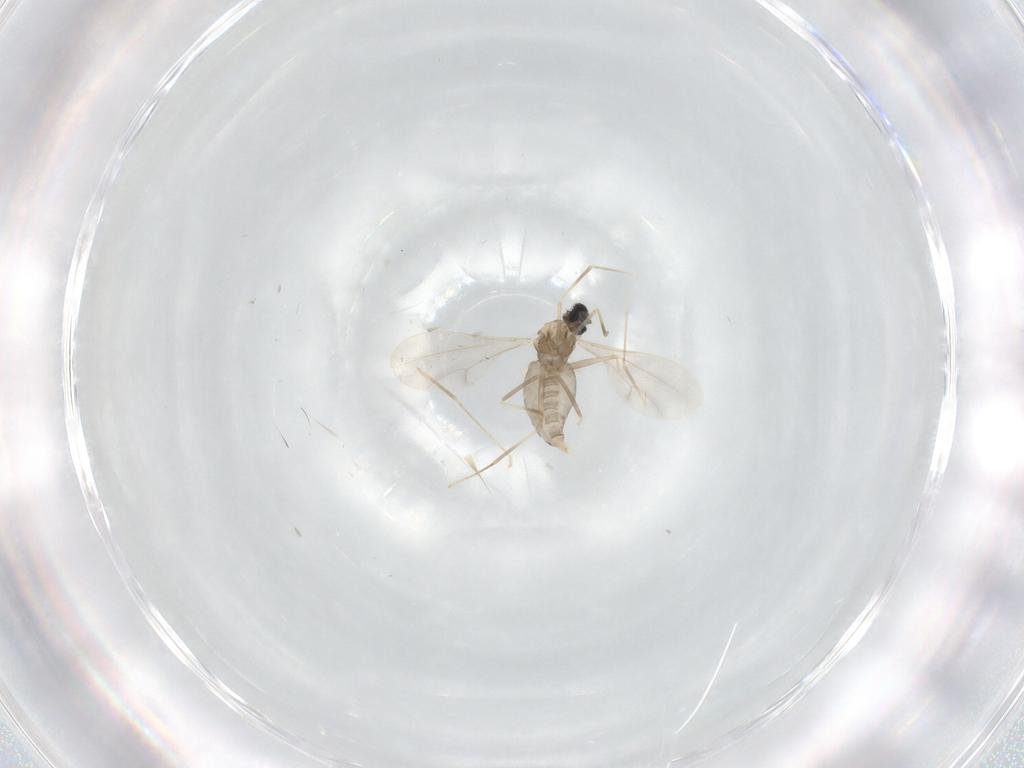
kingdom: Animalia
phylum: Arthropoda
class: Insecta
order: Diptera
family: Cecidomyiidae
